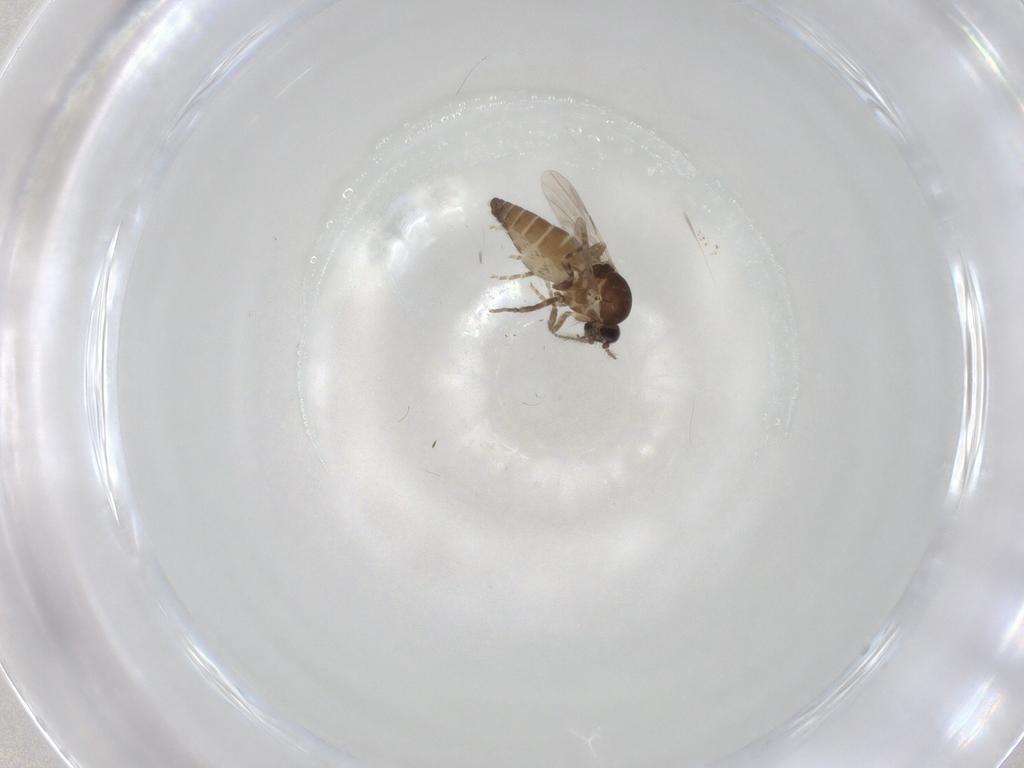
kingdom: Animalia
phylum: Arthropoda
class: Insecta
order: Diptera
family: Ceratopogonidae
